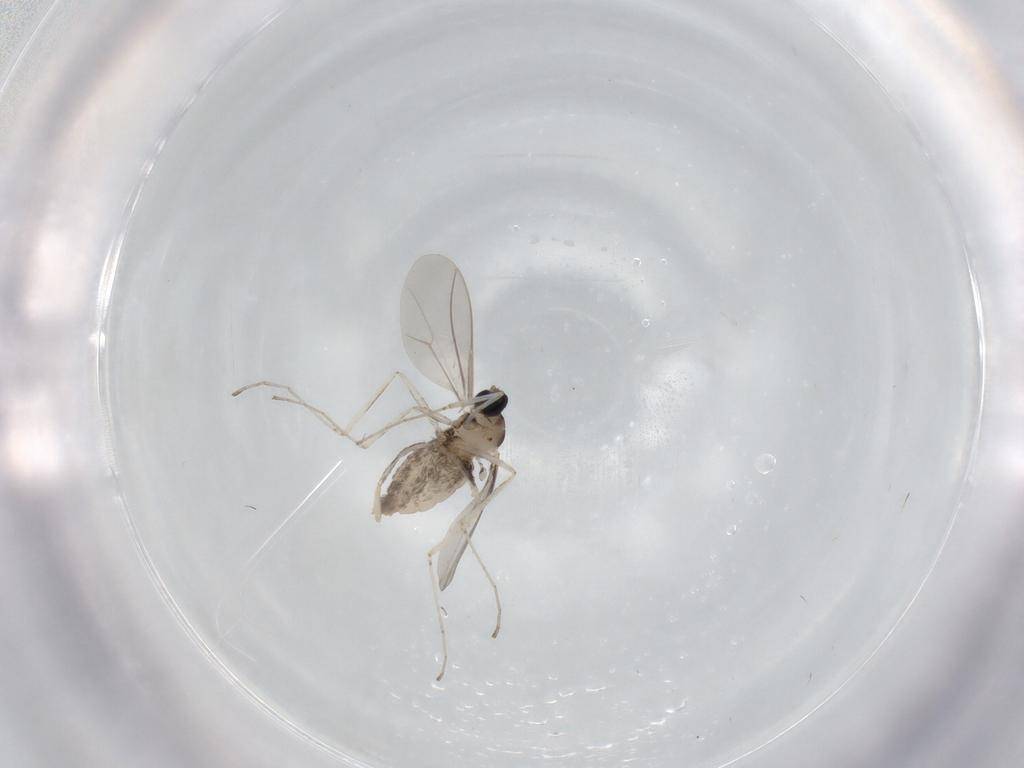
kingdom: Animalia
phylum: Arthropoda
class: Insecta
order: Diptera
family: Cecidomyiidae
